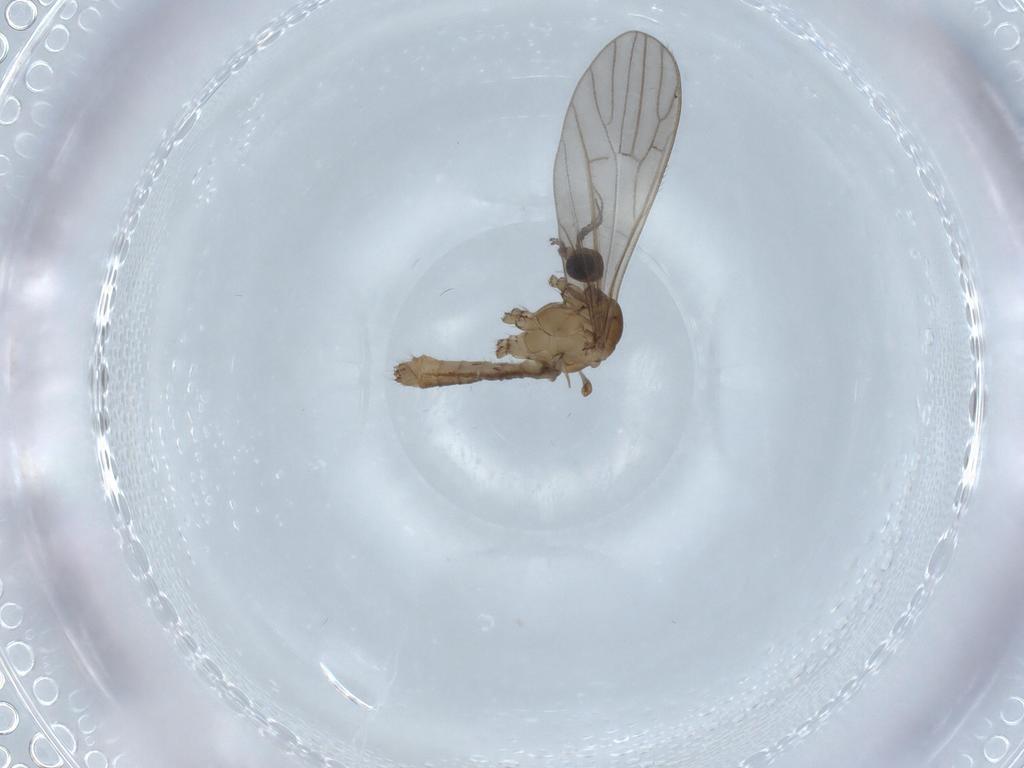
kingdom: Animalia
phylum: Arthropoda
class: Insecta
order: Diptera
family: Limoniidae
